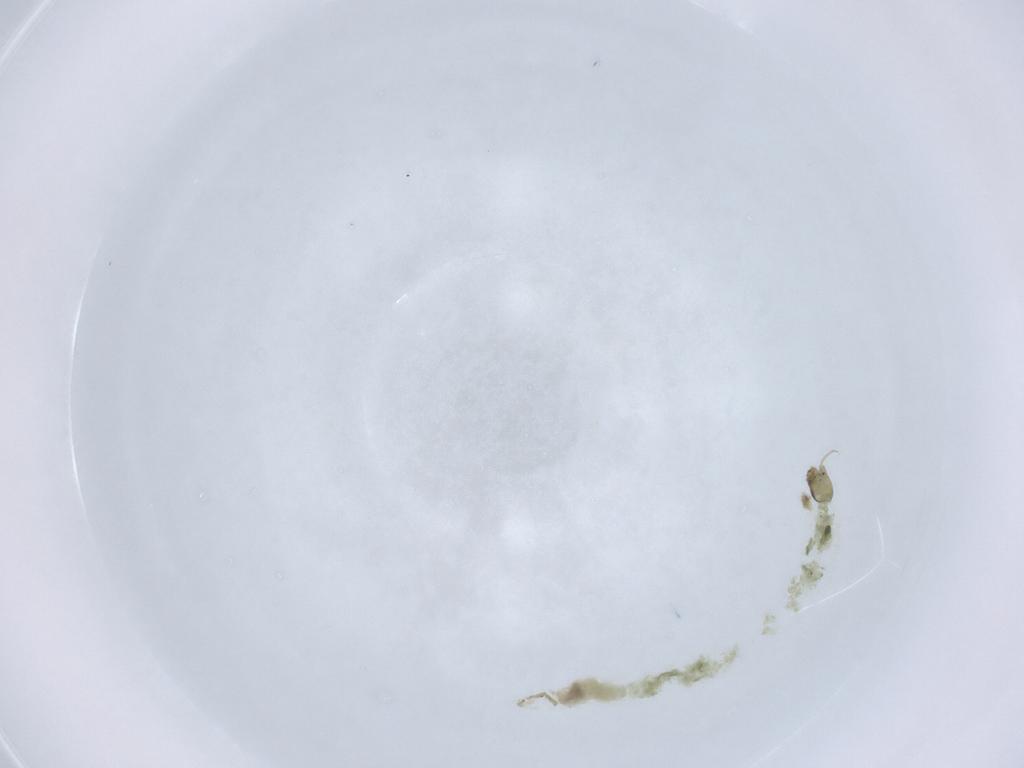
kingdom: Animalia
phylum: Arthropoda
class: Insecta
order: Diptera
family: Chironomidae
